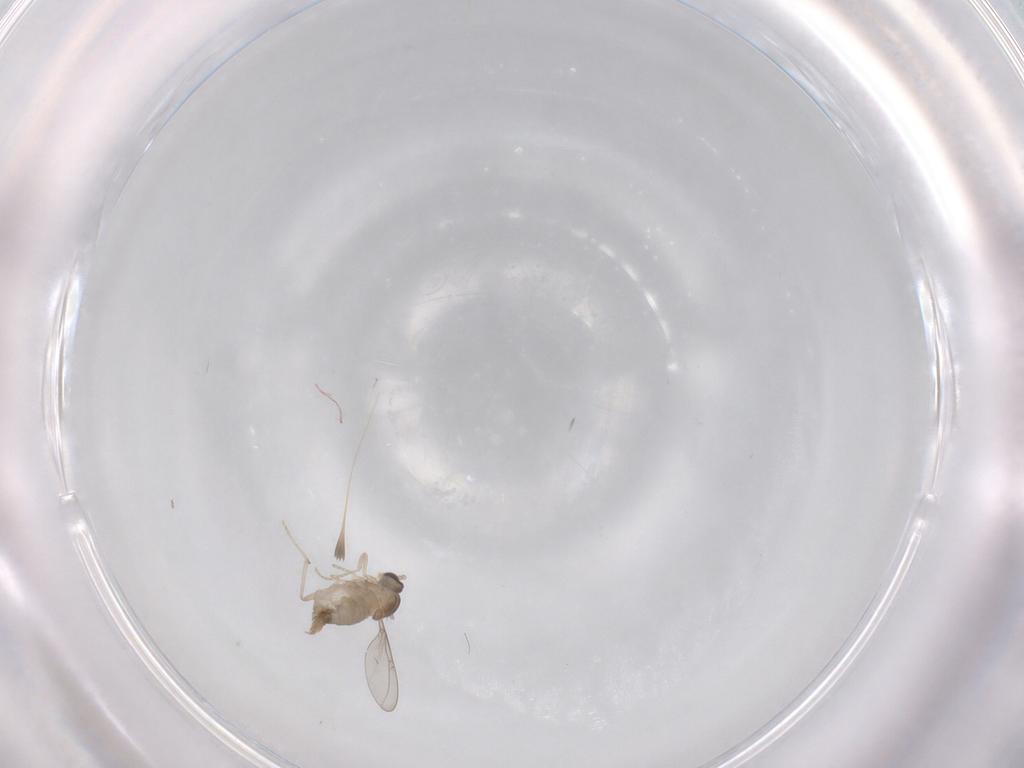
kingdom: Animalia
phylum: Arthropoda
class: Insecta
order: Diptera
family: Cecidomyiidae
